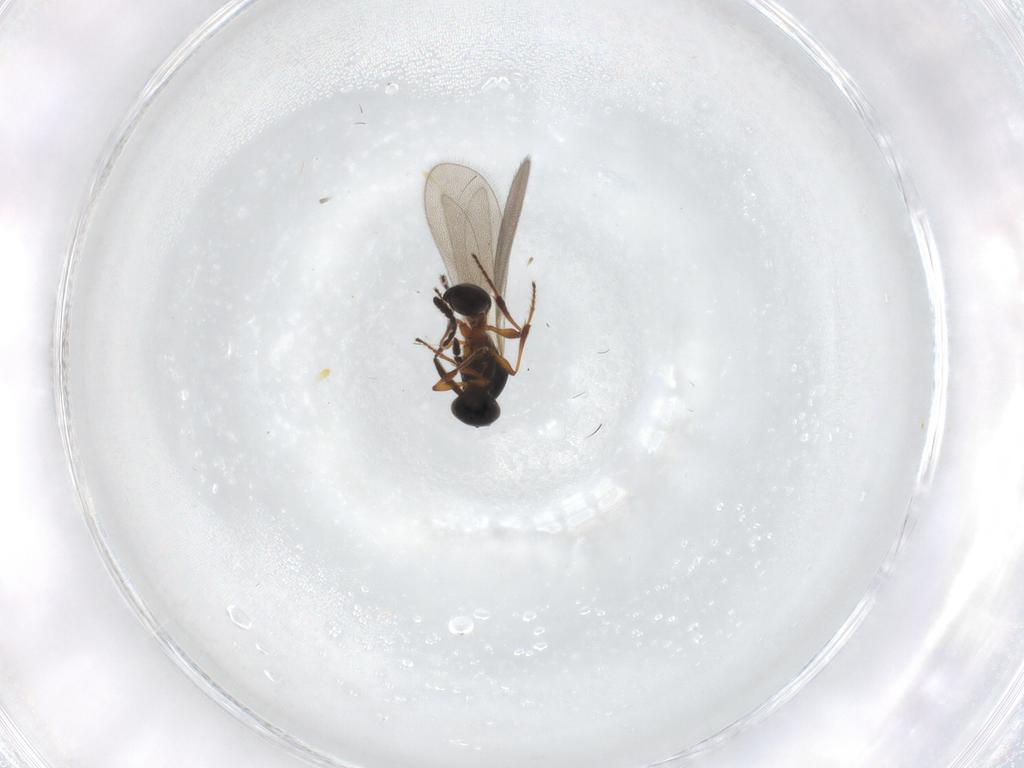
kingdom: Animalia
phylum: Arthropoda
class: Insecta
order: Hymenoptera
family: Platygastridae
